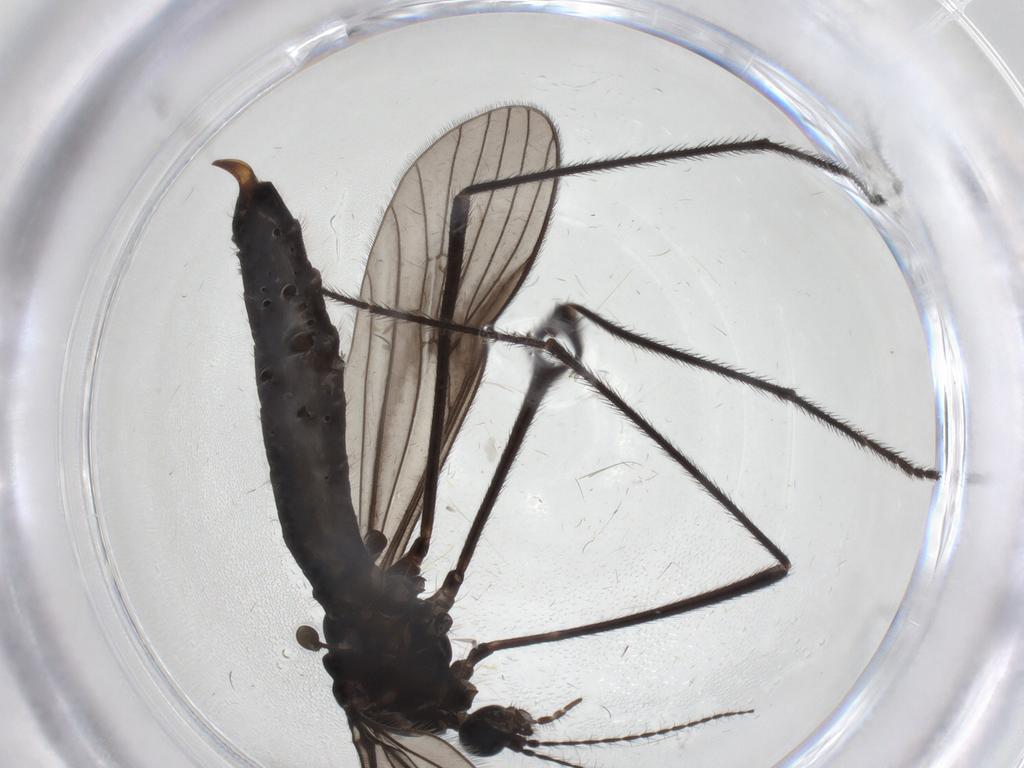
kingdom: Animalia
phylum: Arthropoda
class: Insecta
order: Diptera
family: Limoniidae
